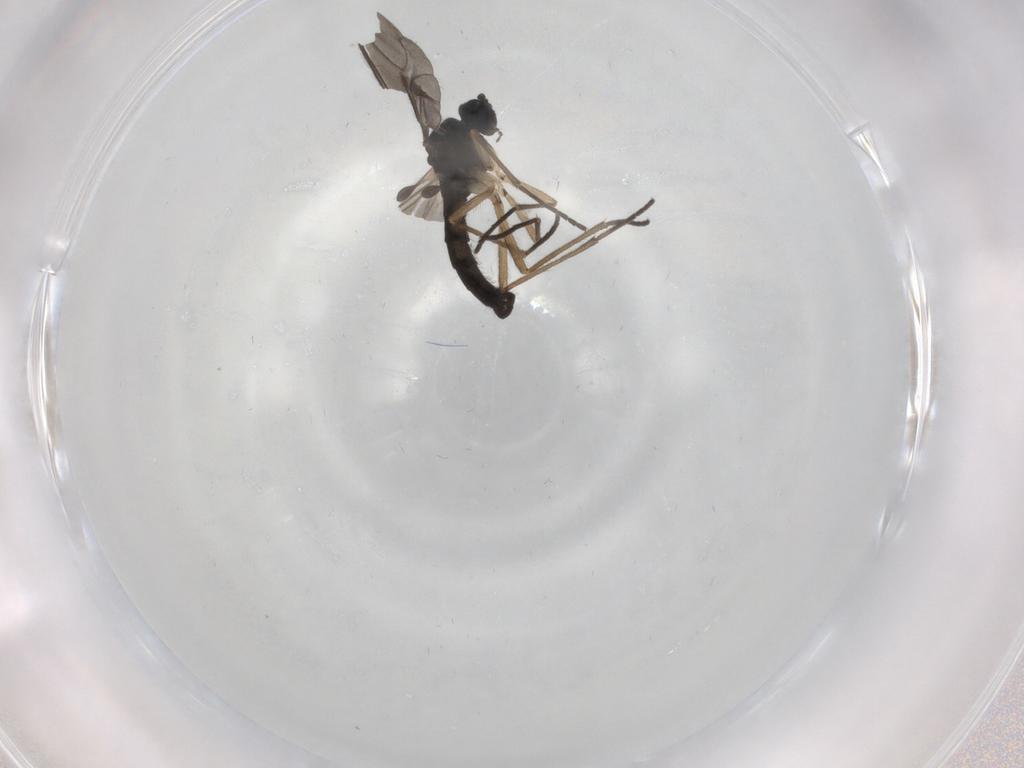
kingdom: Animalia
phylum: Arthropoda
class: Insecta
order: Diptera
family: Sciaridae
